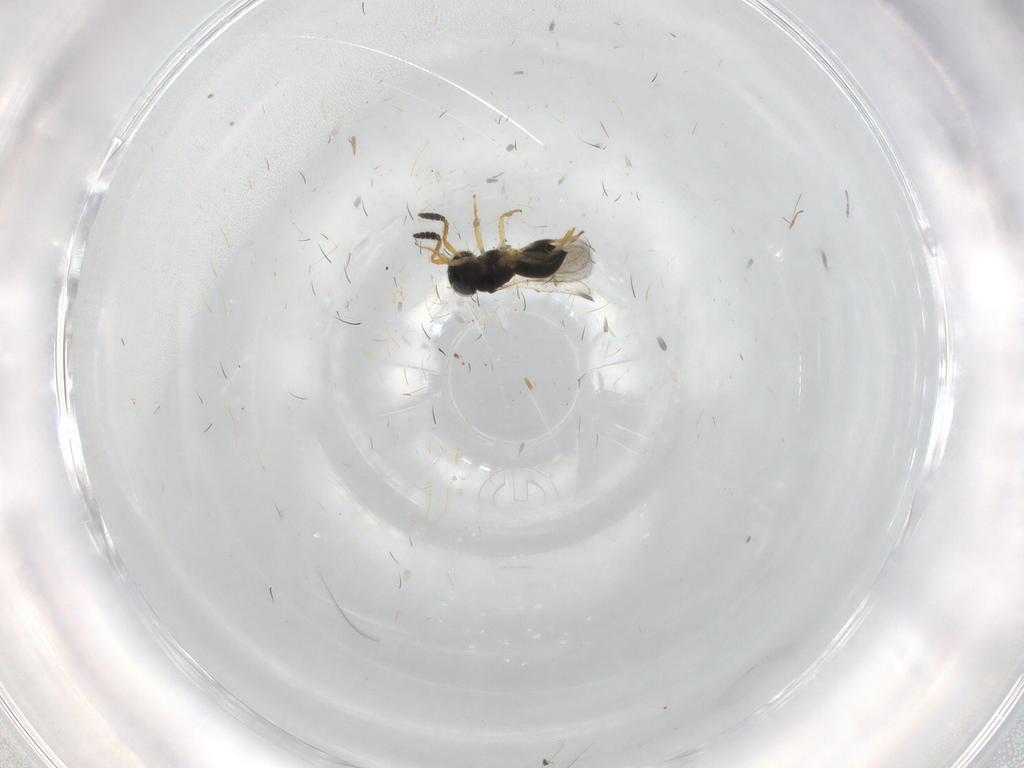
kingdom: Animalia
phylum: Arthropoda
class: Insecta
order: Hymenoptera
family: Scelionidae
